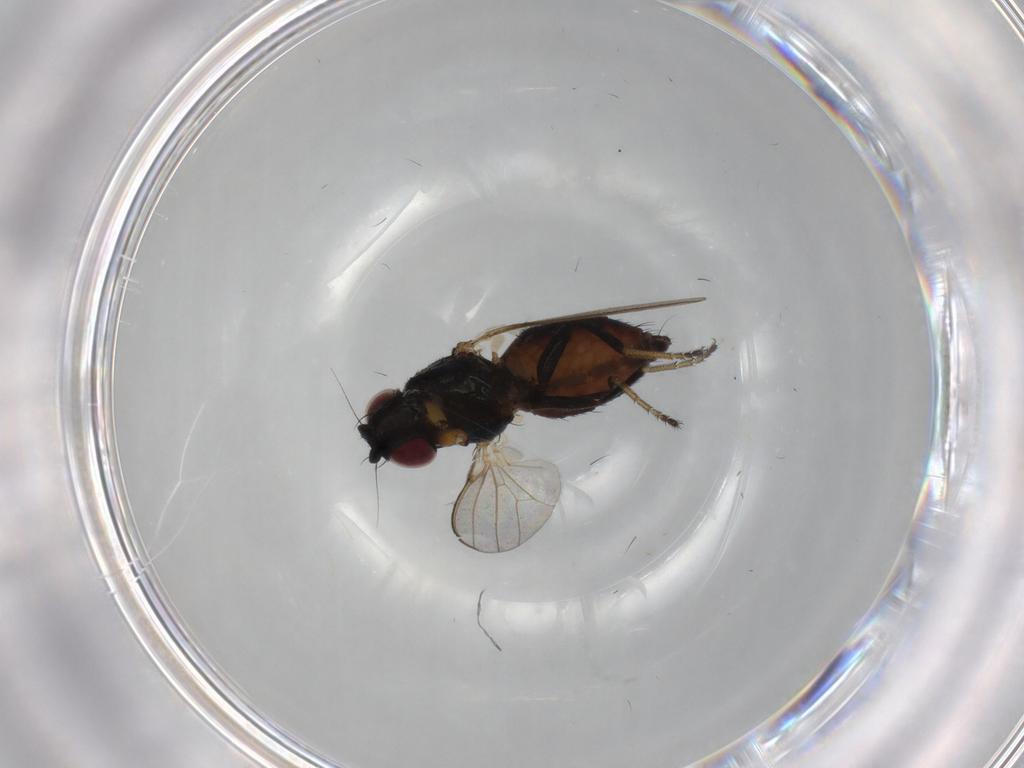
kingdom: Animalia
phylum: Arthropoda
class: Insecta
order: Diptera
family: Milichiidae
